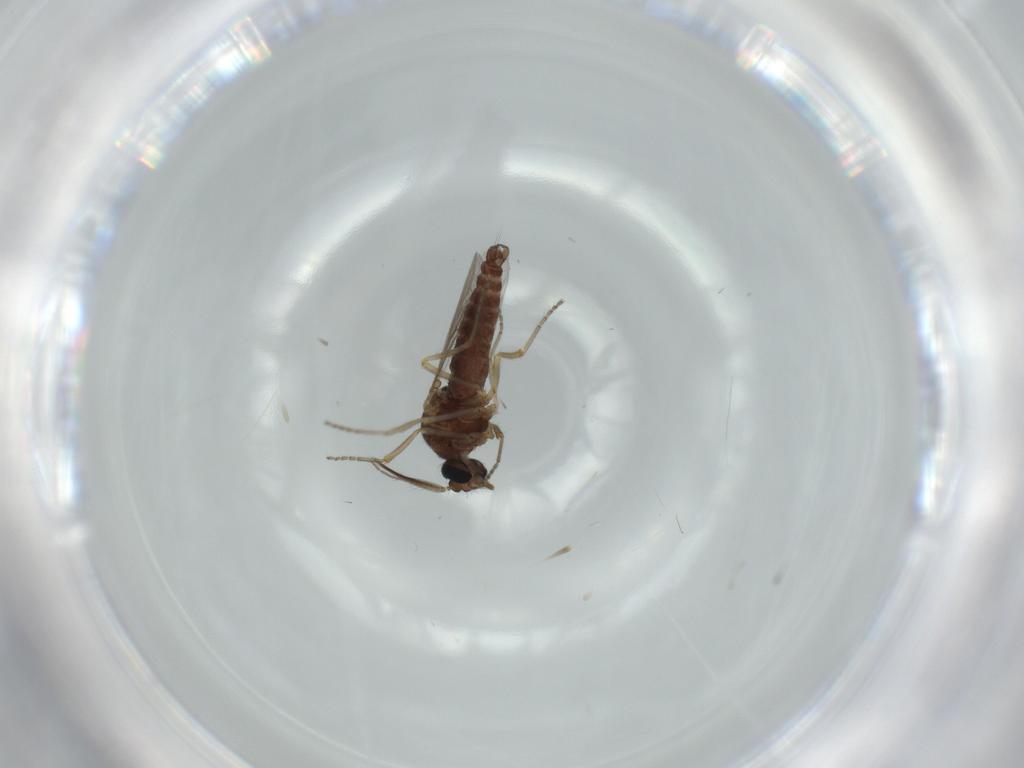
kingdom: Animalia
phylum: Arthropoda
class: Insecta
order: Diptera
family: Ceratopogonidae
